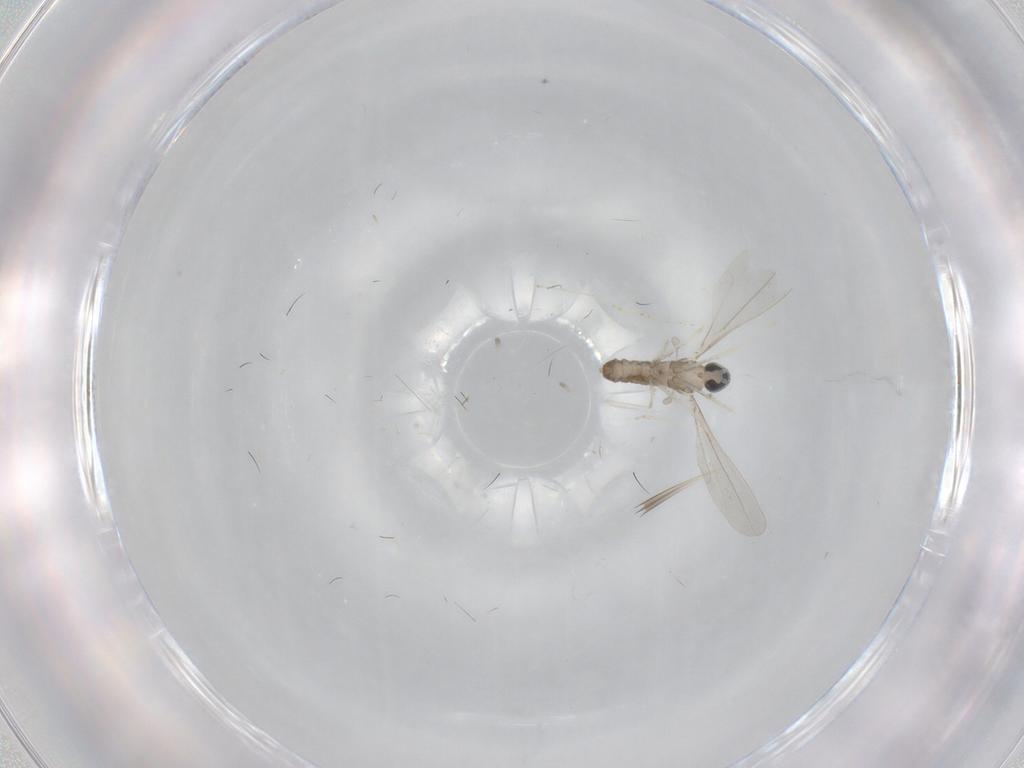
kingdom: Animalia
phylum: Arthropoda
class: Insecta
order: Diptera
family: Cecidomyiidae
